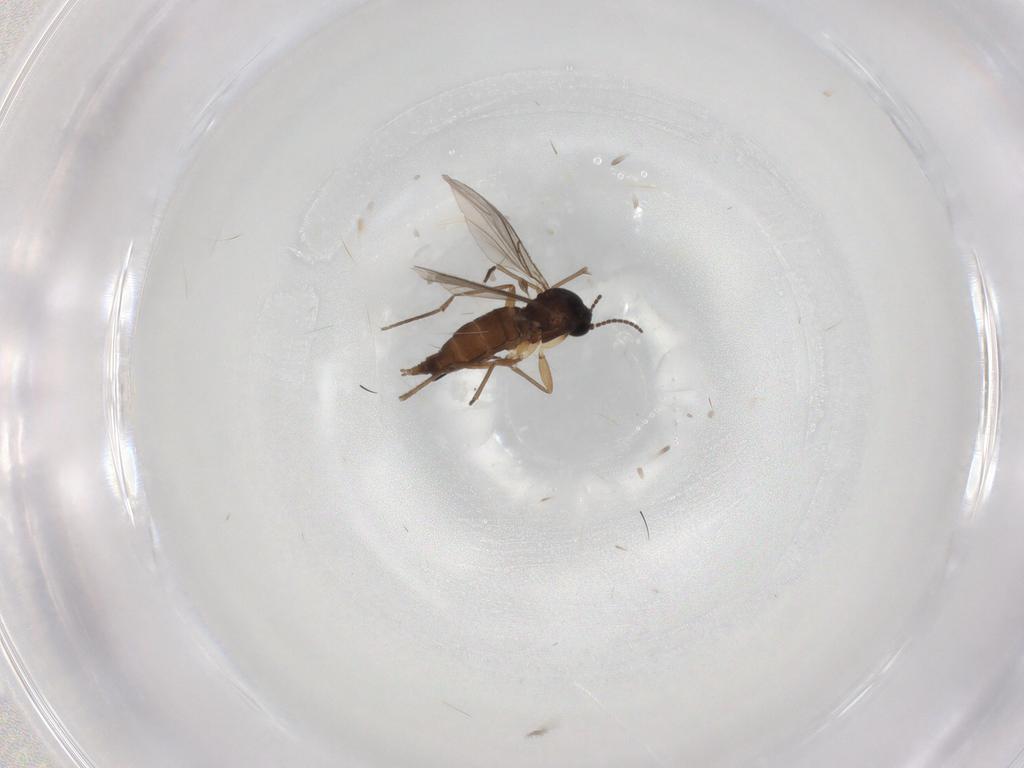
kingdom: Animalia
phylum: Arthropoda
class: Insecta
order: Diptera
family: Sciaridae
